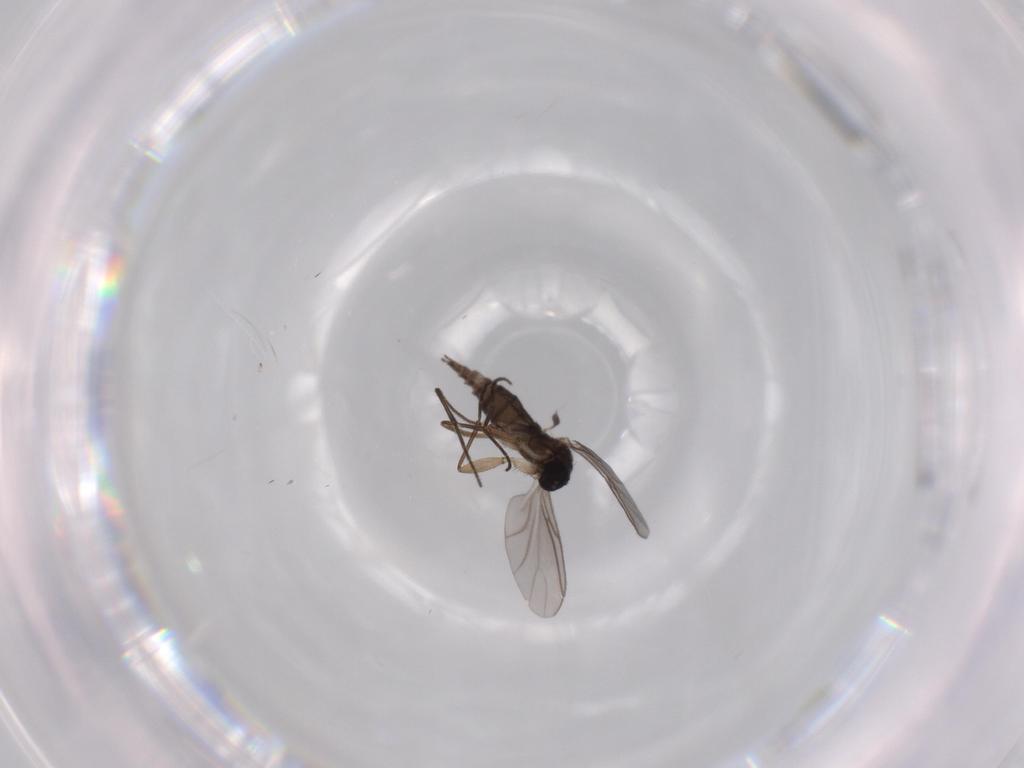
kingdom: Animalia
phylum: Arthropoda
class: Insecta
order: Diptera
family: Sciaridae
